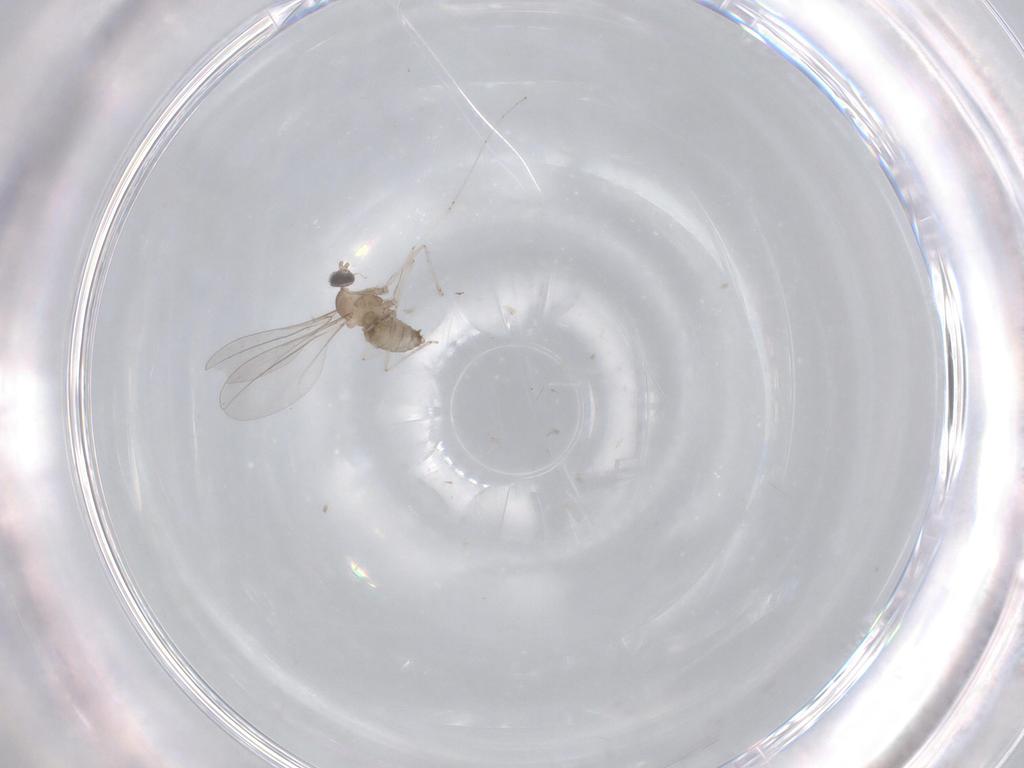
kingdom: Animalia
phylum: Arthropoda
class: Insecta
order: Diptera
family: Cecidomyiidae
